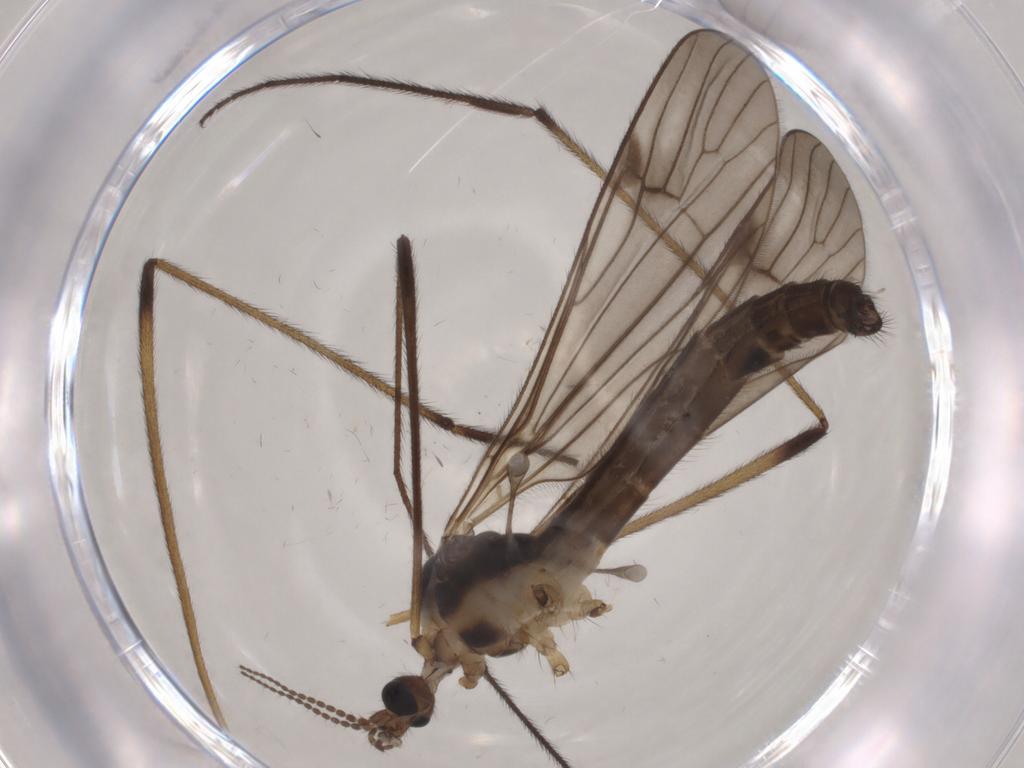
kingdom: Animalia
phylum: Arthropoda
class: Insecta
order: Diptera
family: Limoniidae
